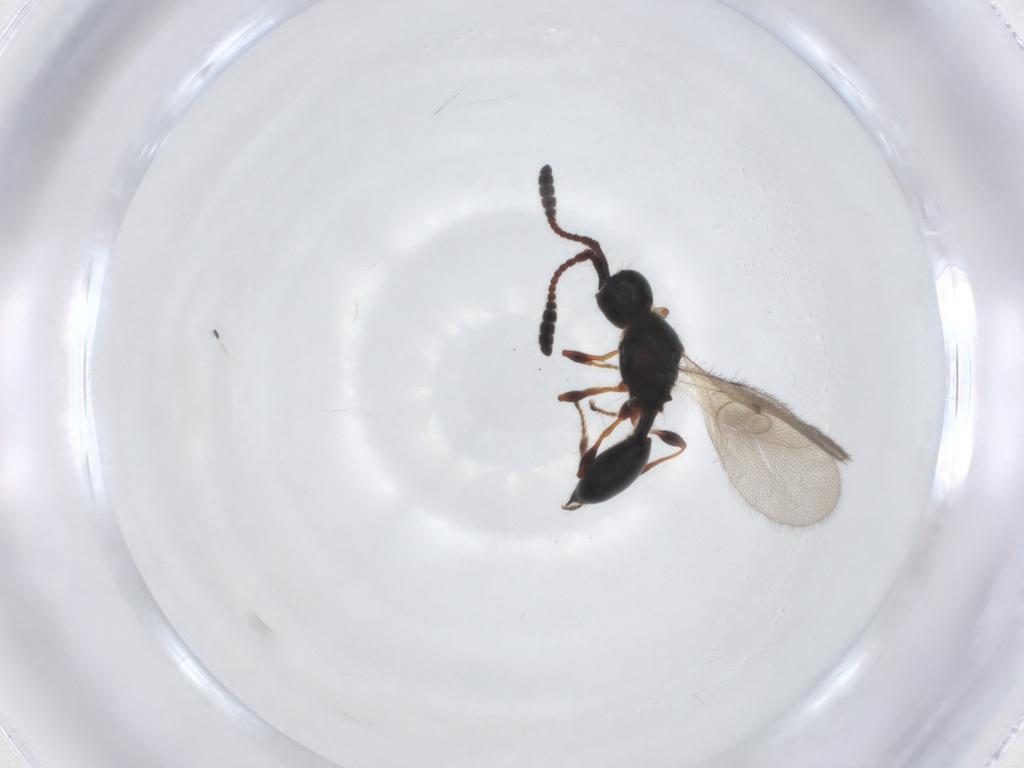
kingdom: Animalia
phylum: Arthropoda
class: Insecta
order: Hymenoptera
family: Diapriidae
